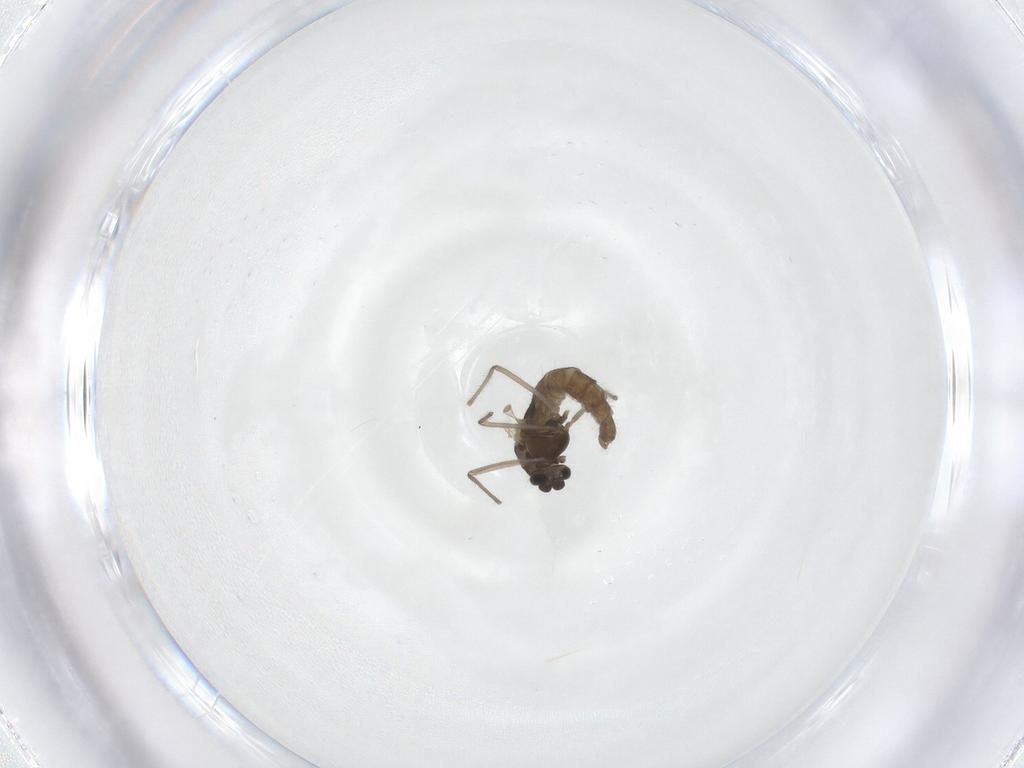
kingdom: Animalia
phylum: Arthropoda
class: Insecta
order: Diptera
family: Chironomidae
